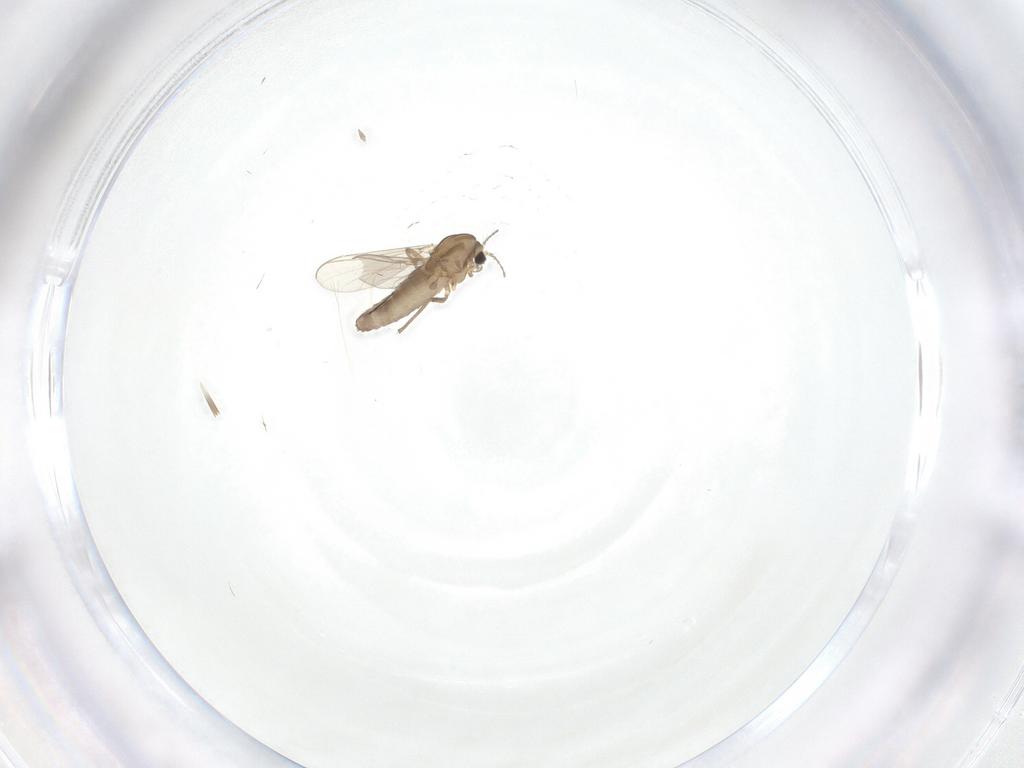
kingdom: Animalia
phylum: Arthropoda
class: Insecta
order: Diptera
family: Chironomidae
